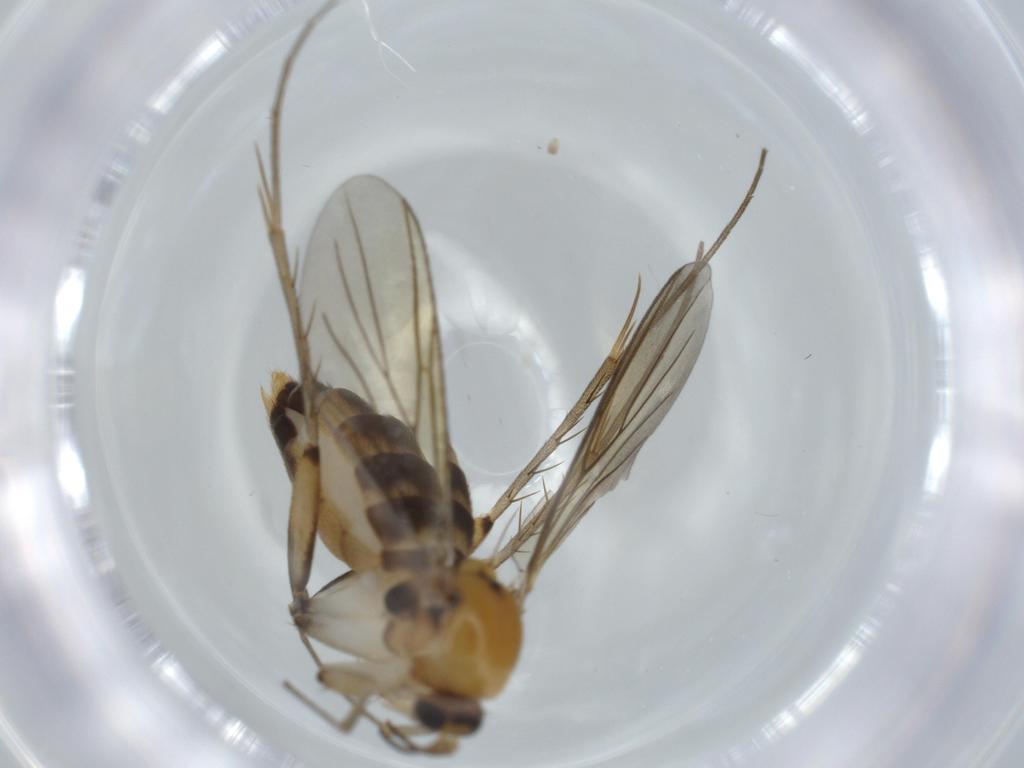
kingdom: Animalia
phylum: Arthropoda
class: Insecta
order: Diptera
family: Mycetophilidae
